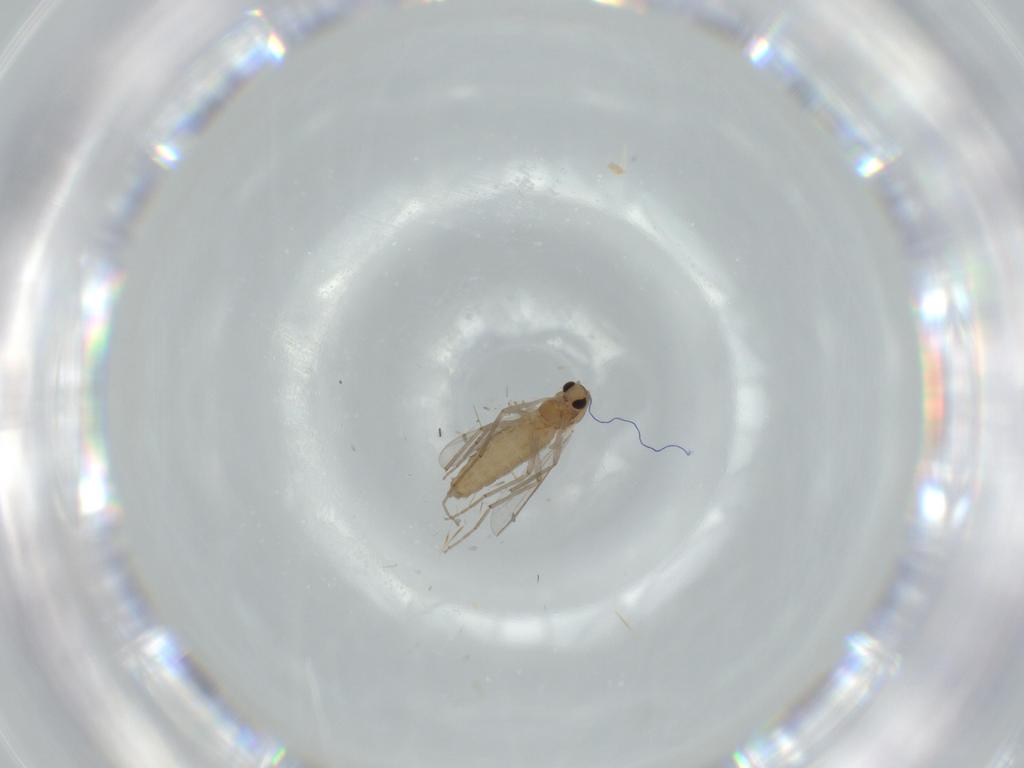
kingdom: Animalia
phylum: Arthropoda
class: Insecta
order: Diptera
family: Chironomidae
